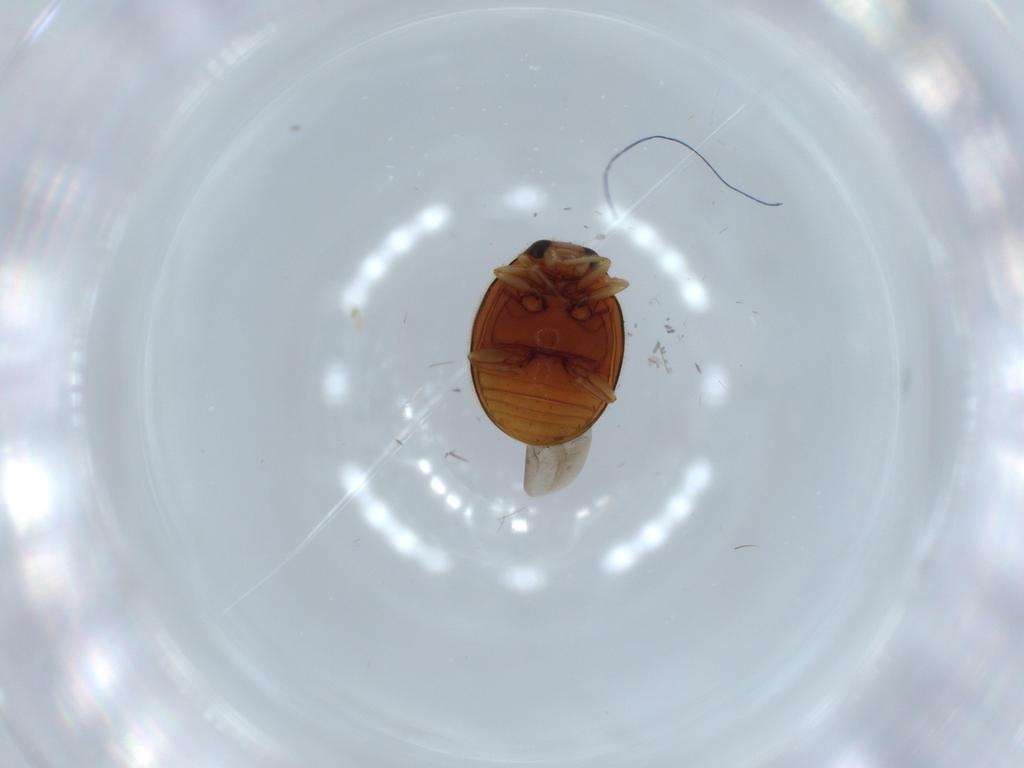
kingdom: Animalia
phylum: Arthropoda
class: Insecta
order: Coleoptera
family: Coccinellidae
